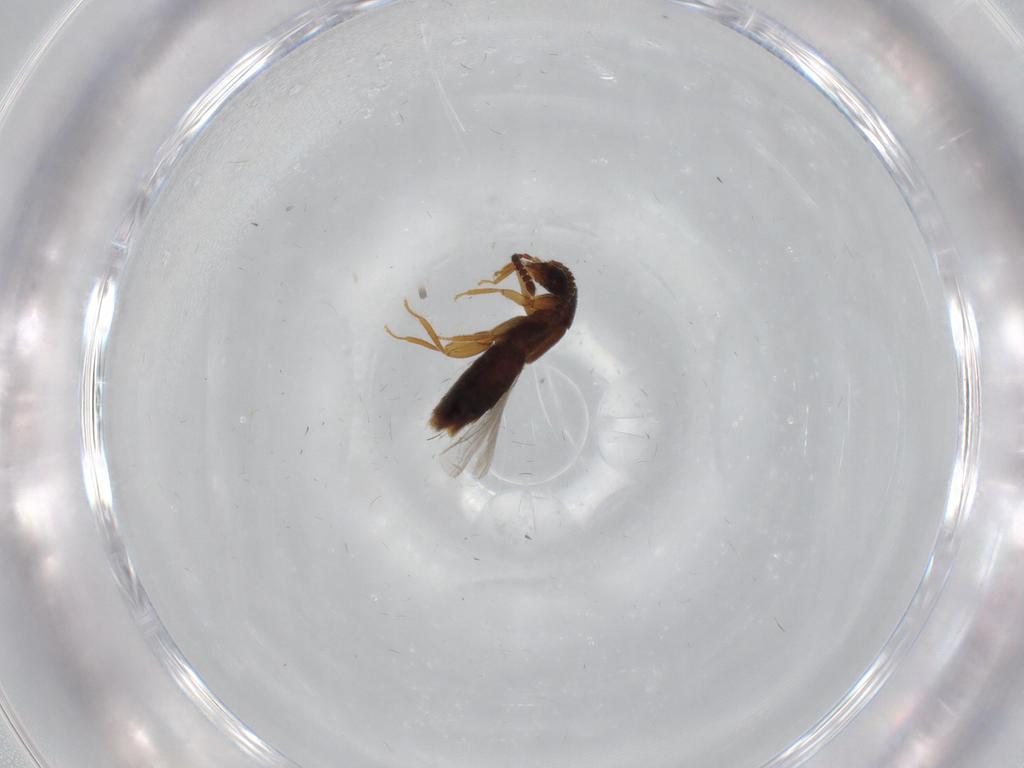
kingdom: Animalia
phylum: Arthropoda
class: Insecta
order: Coleoptera
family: Staphylinidae
